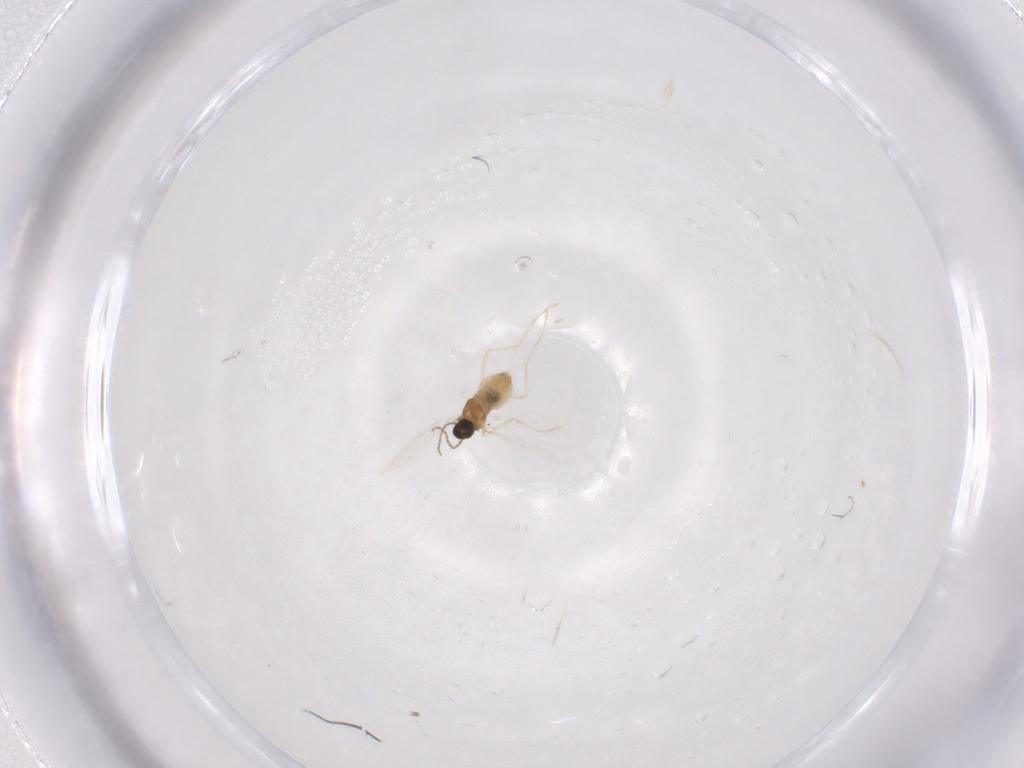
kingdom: Animalia
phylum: Arthropoda
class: Insecta
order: Diptera
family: Cecidomyiidae
